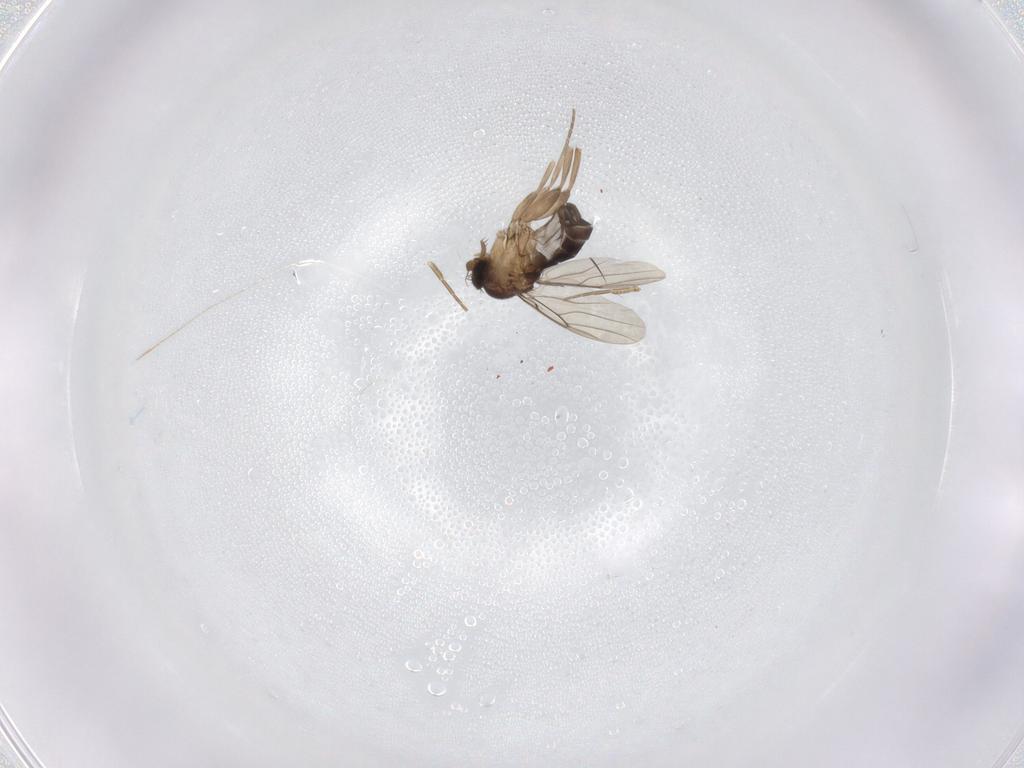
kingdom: Animalia
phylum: Arthropoda
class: Insecta
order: Diptera
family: Phoridae
